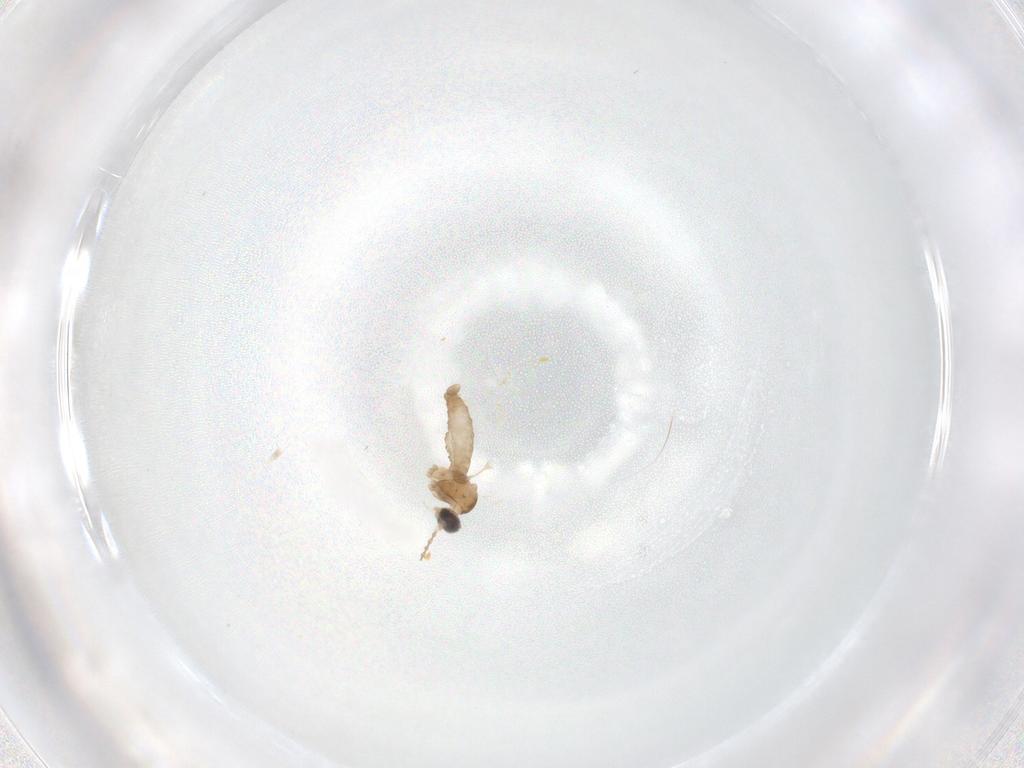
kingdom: Animalia
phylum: Arthropoda
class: Insecta
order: Diptera
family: Cecidomyiidae
